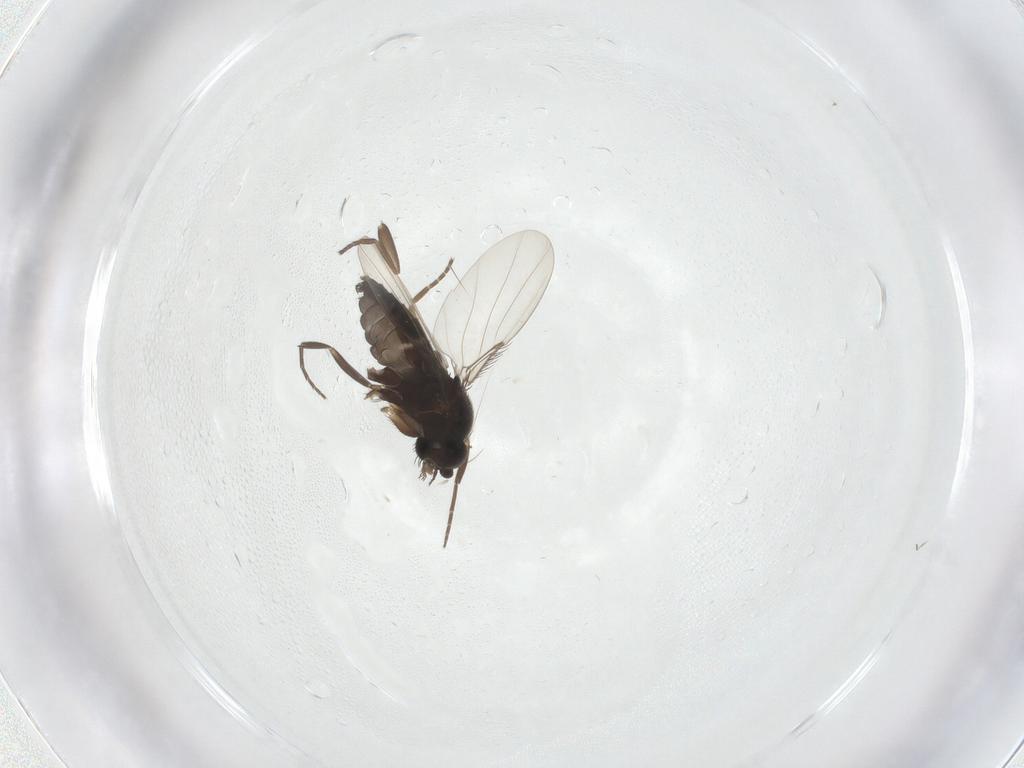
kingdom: Animalia
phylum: Arthropoda
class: Insecta
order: Diptera
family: Phoridae
